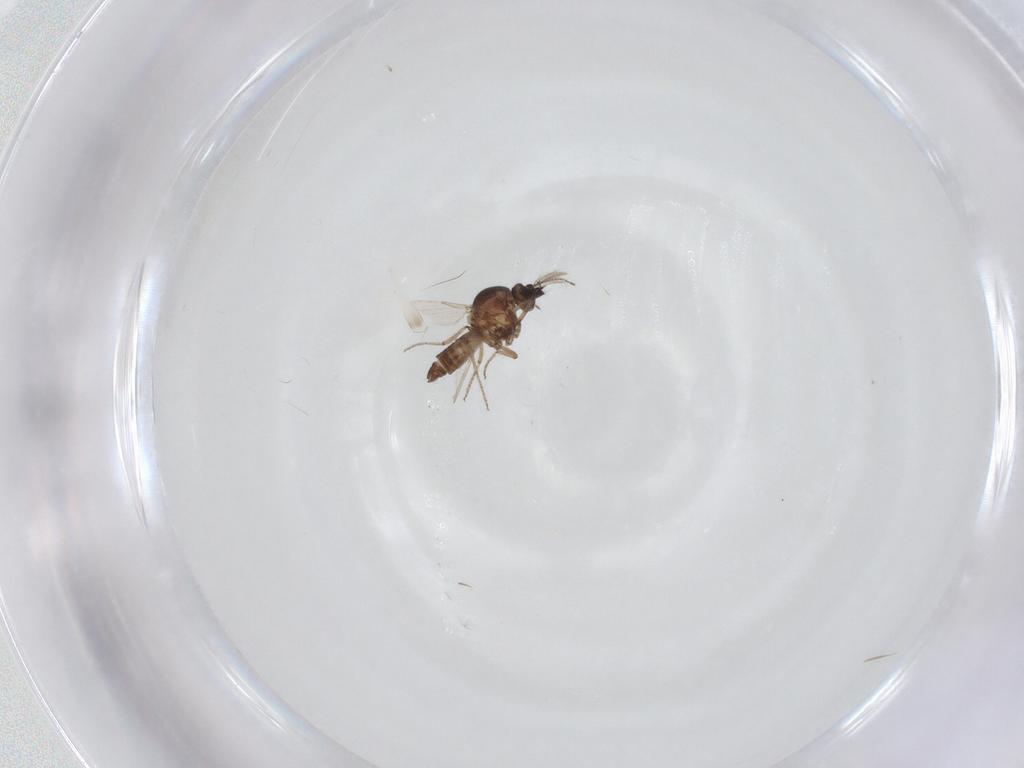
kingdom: Animalia
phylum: Arthropoda
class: Insecta
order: Diptera
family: Ceratopogonidae
